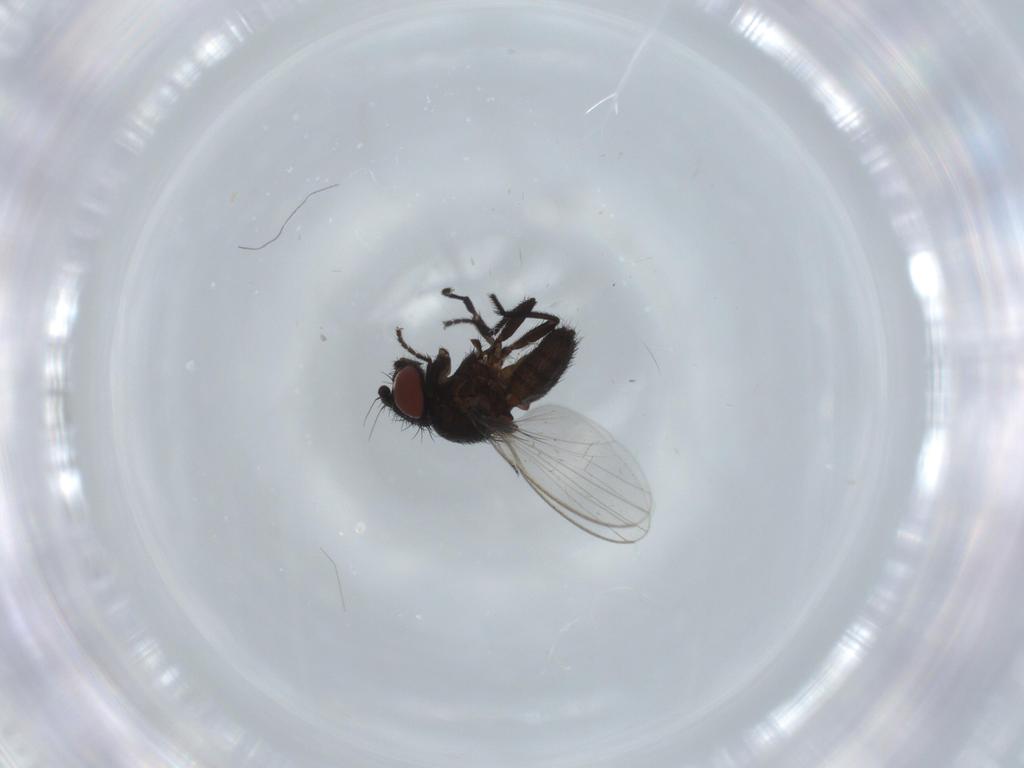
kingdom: Animalia
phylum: Arthropoda
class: Insecta
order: Diptera
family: Milichiidae
